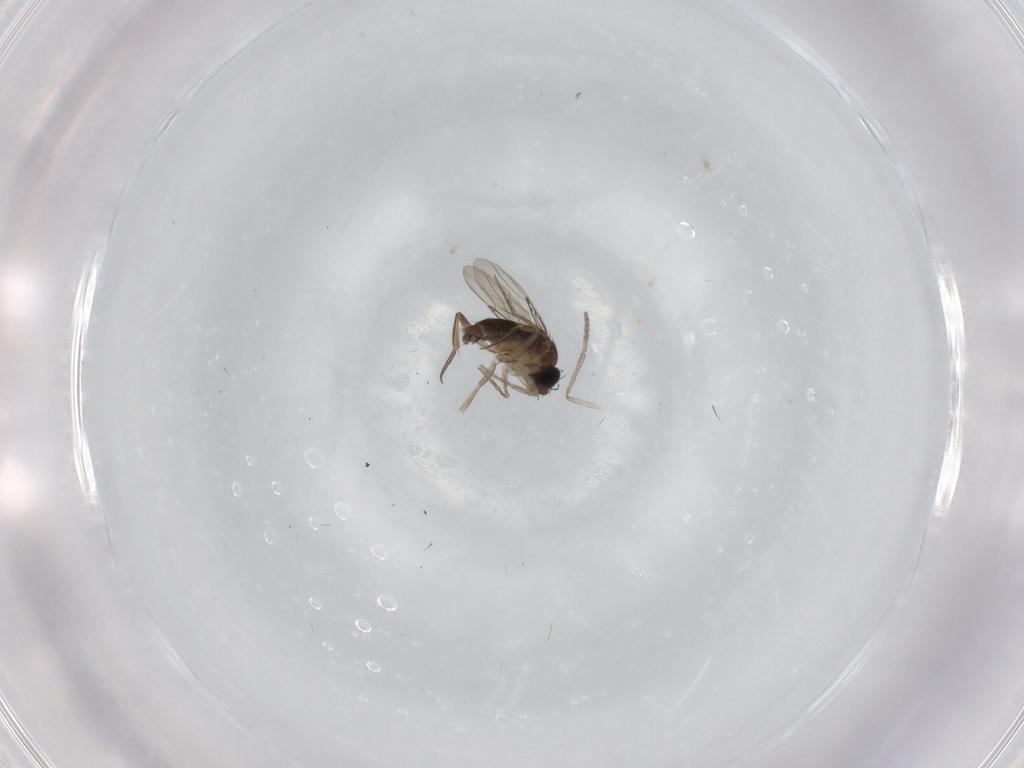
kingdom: Animalia
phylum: Arthropoda
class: Insecta
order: Diptera
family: Phoridae
